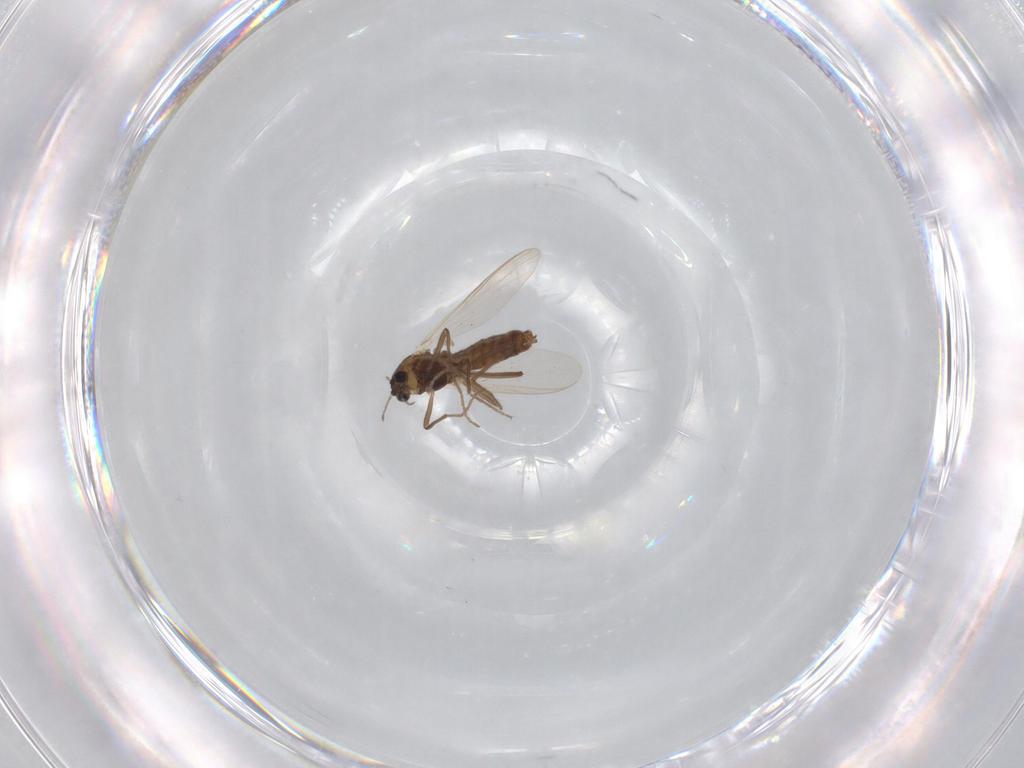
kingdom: Animalia
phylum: Arthropoda
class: Insecta
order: Diptera
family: Chironomidae
